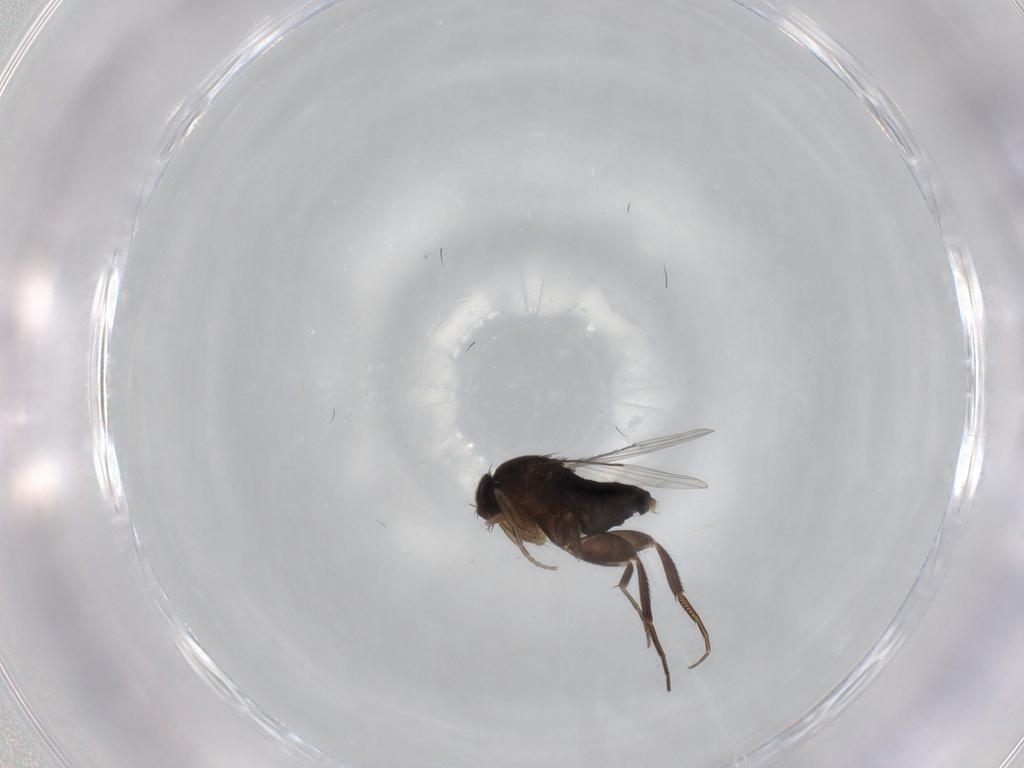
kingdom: Animalia
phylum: Arthropoda
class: Insecta
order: Diptera
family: Phoridae
